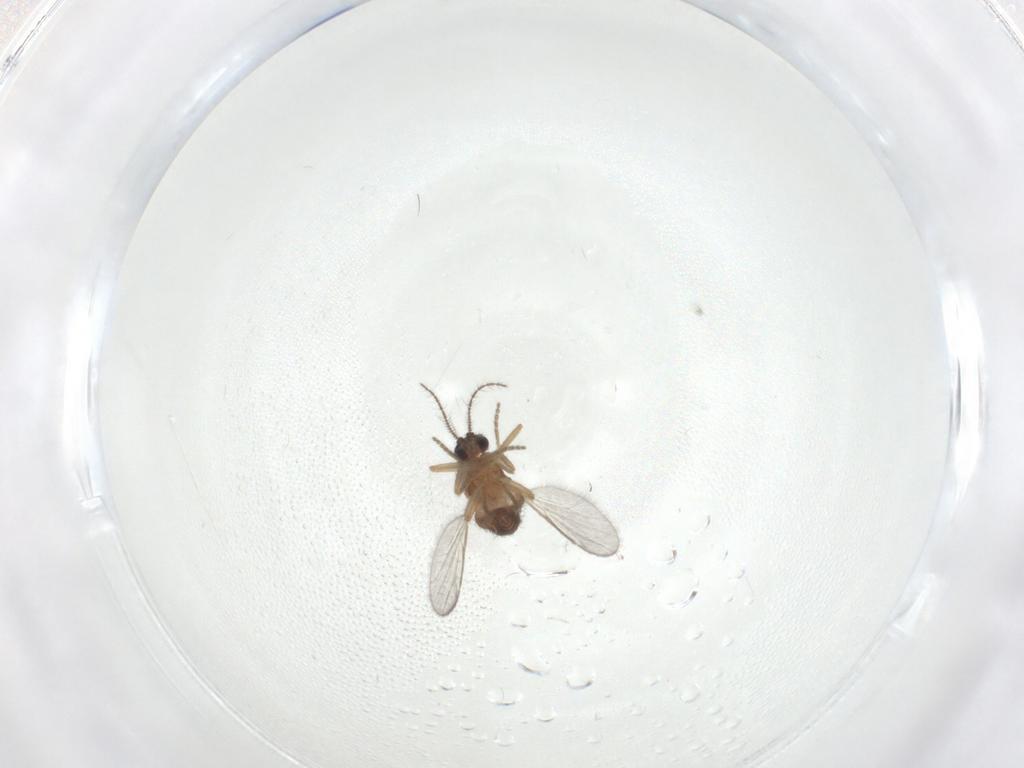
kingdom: Animalia
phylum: Arthropoda
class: Insecta
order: Diptera
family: Ceratopogonidae
